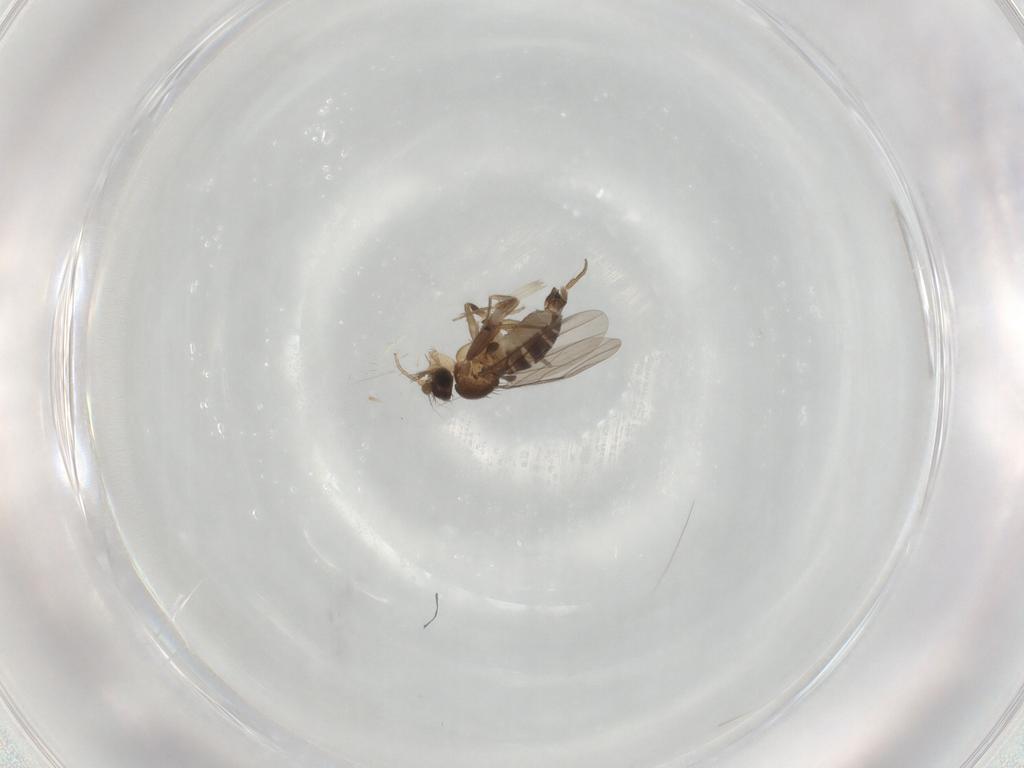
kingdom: Animalia
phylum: Arthropoda
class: Insecta
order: Diptera
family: Phoridae
